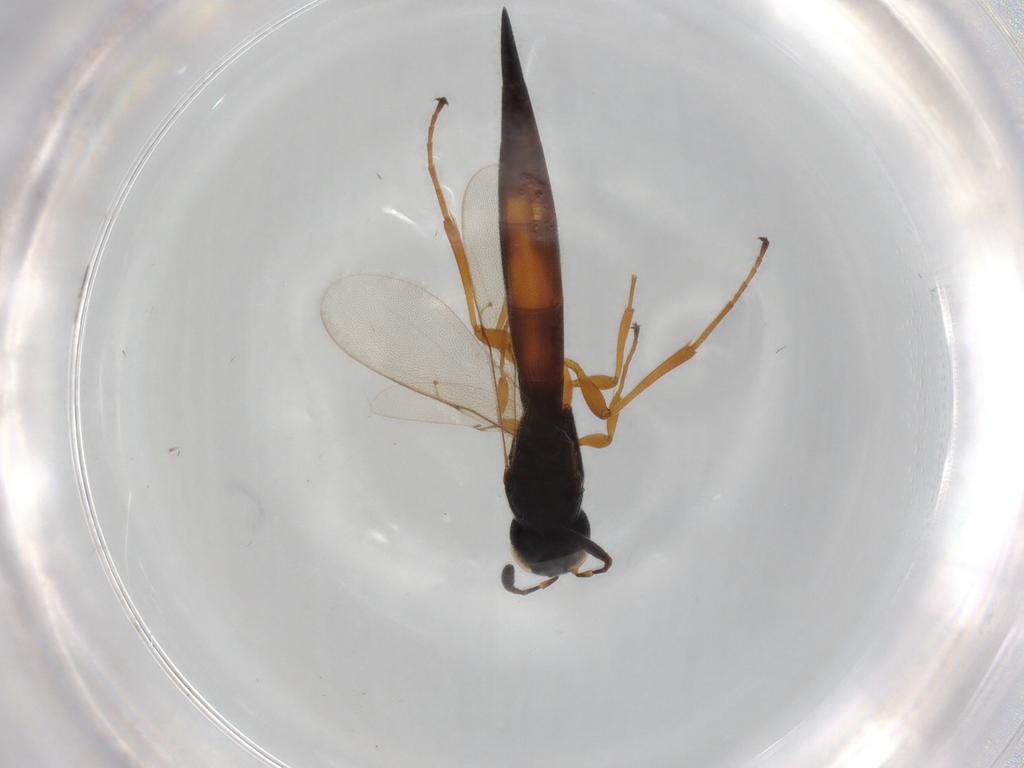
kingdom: Animalia
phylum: Arthropoda
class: Insecta
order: Hymenoptera
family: Scelionidae
